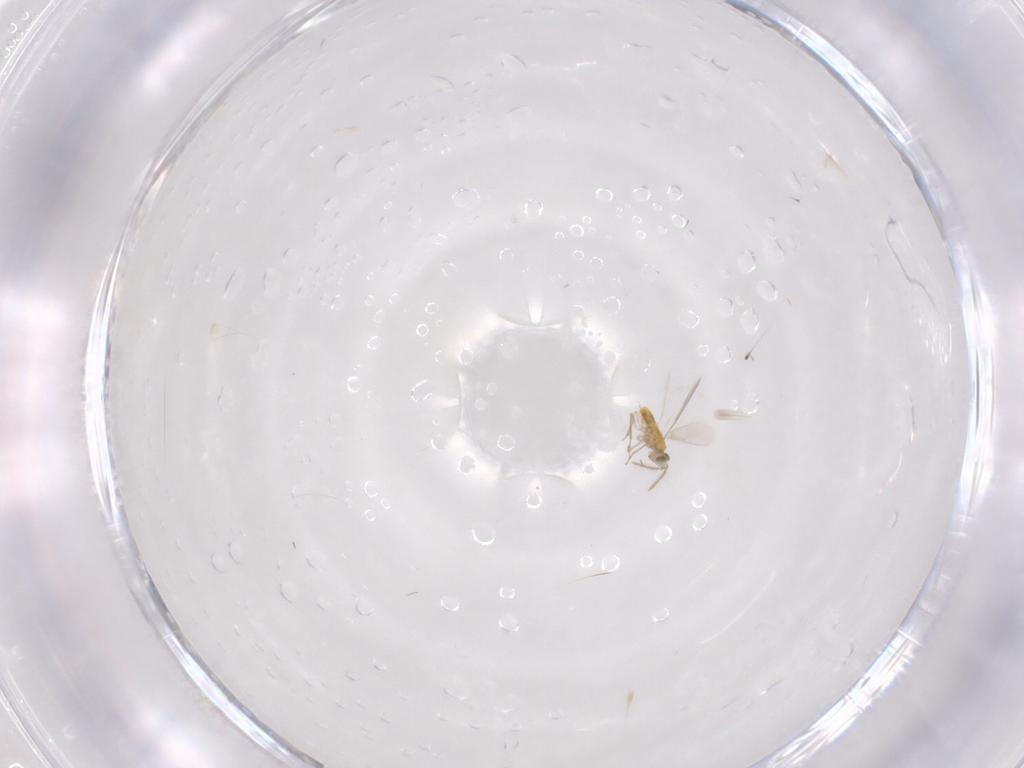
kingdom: Animalia
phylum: Arthropoda
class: Insecta
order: Hymenoptera
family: Aphelinidae
